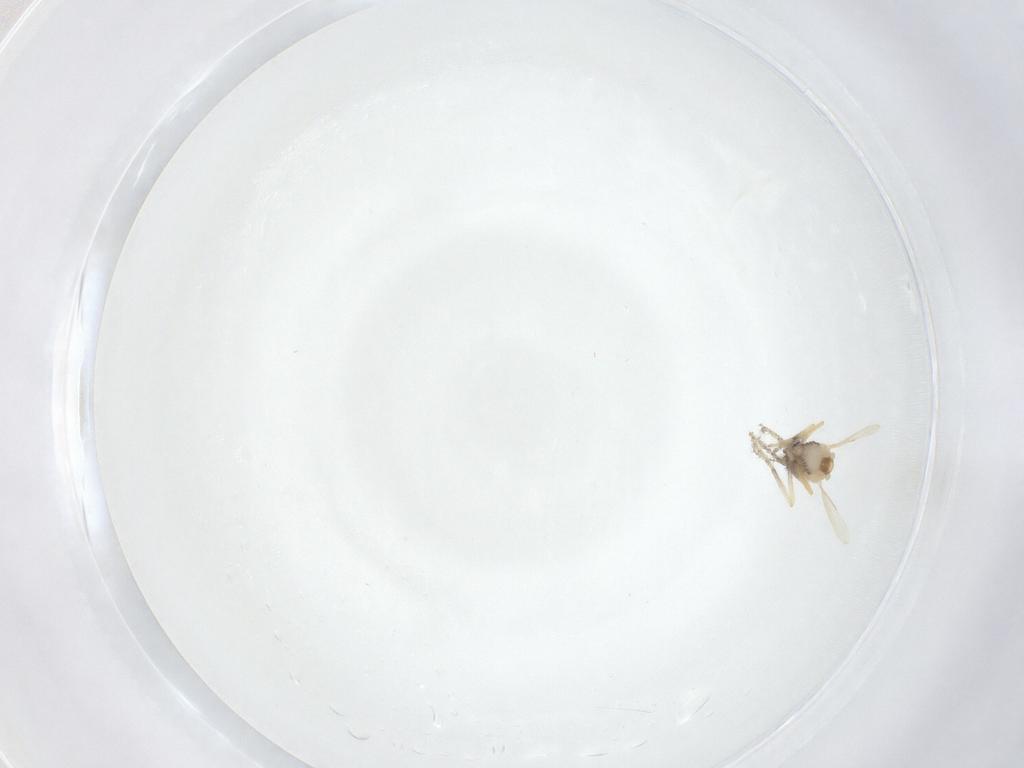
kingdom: Animalia
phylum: Arthropoda
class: Insecta
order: Diptera
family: Ceratopogonidae
